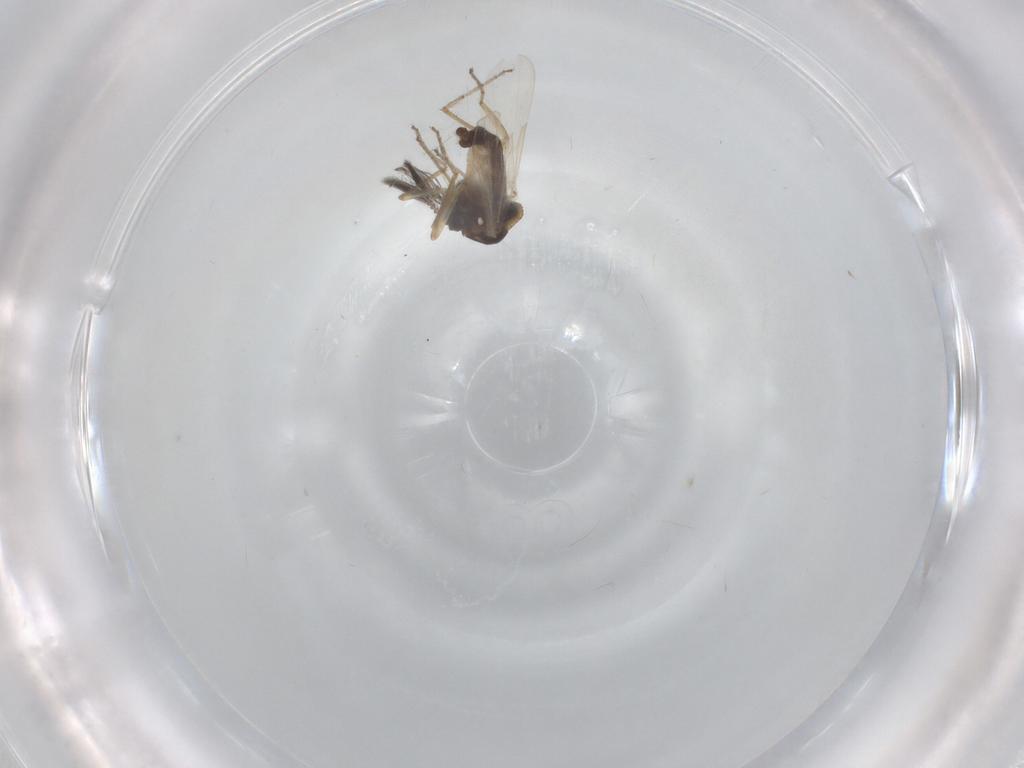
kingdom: Animalia
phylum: Arthropoda
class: Insecta
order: Diptera
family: Ceratopogonidae
